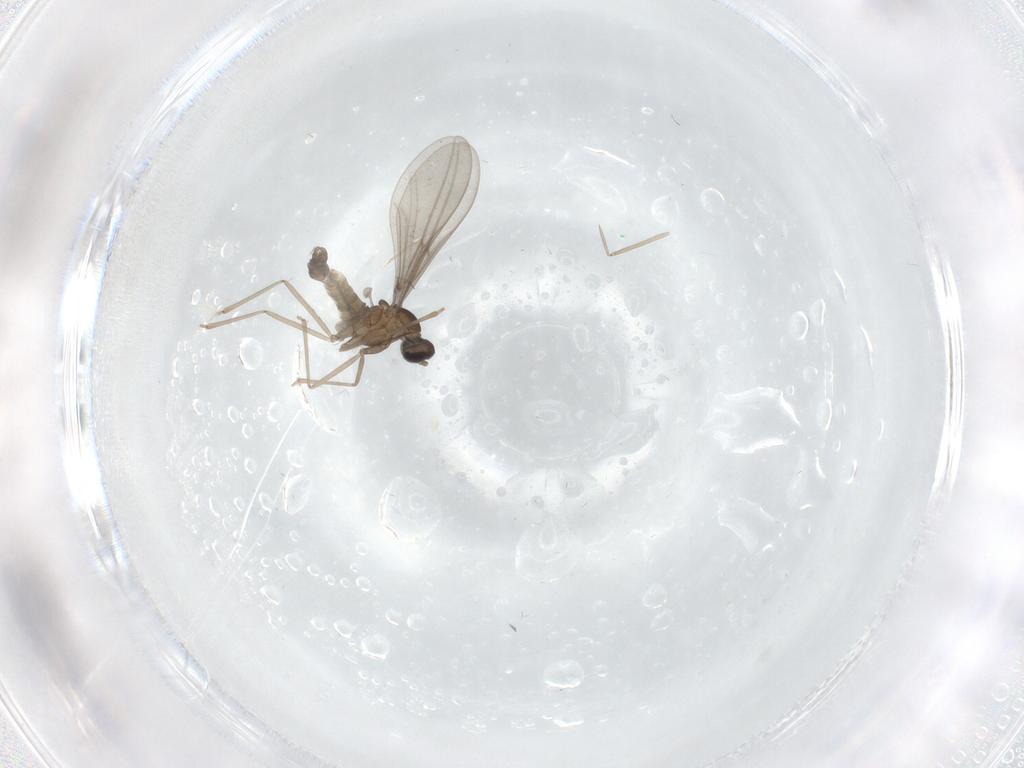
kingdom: Animalia
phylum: Arthropoda
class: Insecta
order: Diptera
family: Cecidomyiidae
